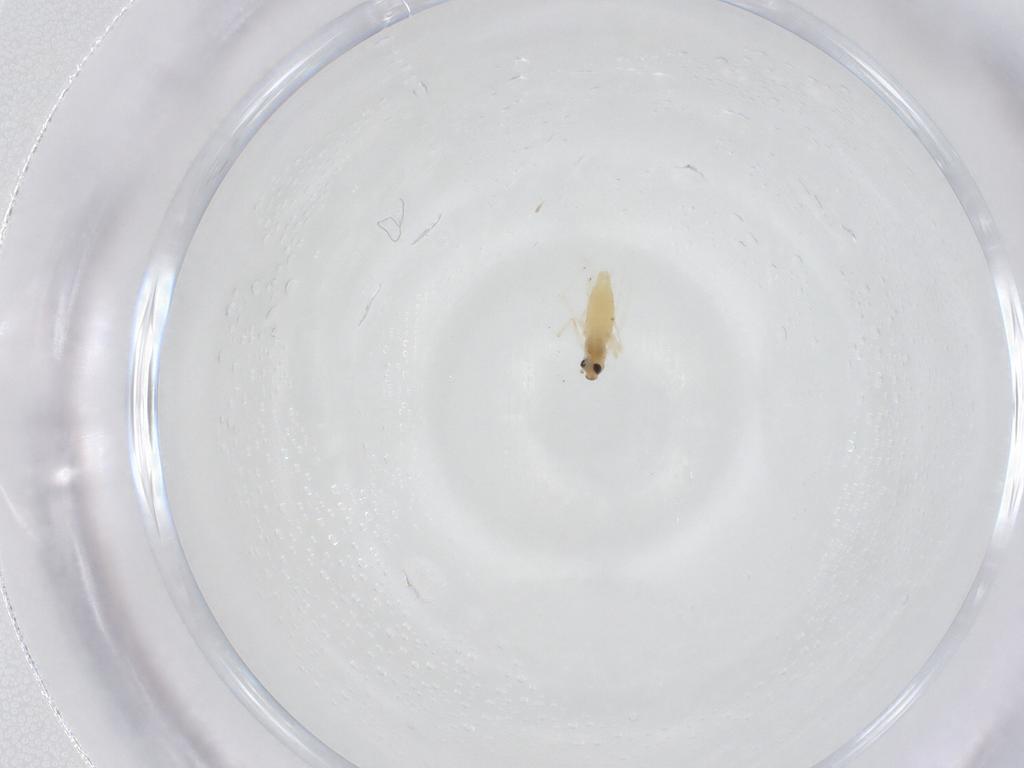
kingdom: Animalia
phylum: Arthropoda
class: Insecta
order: Diptera
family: Chironomidae
